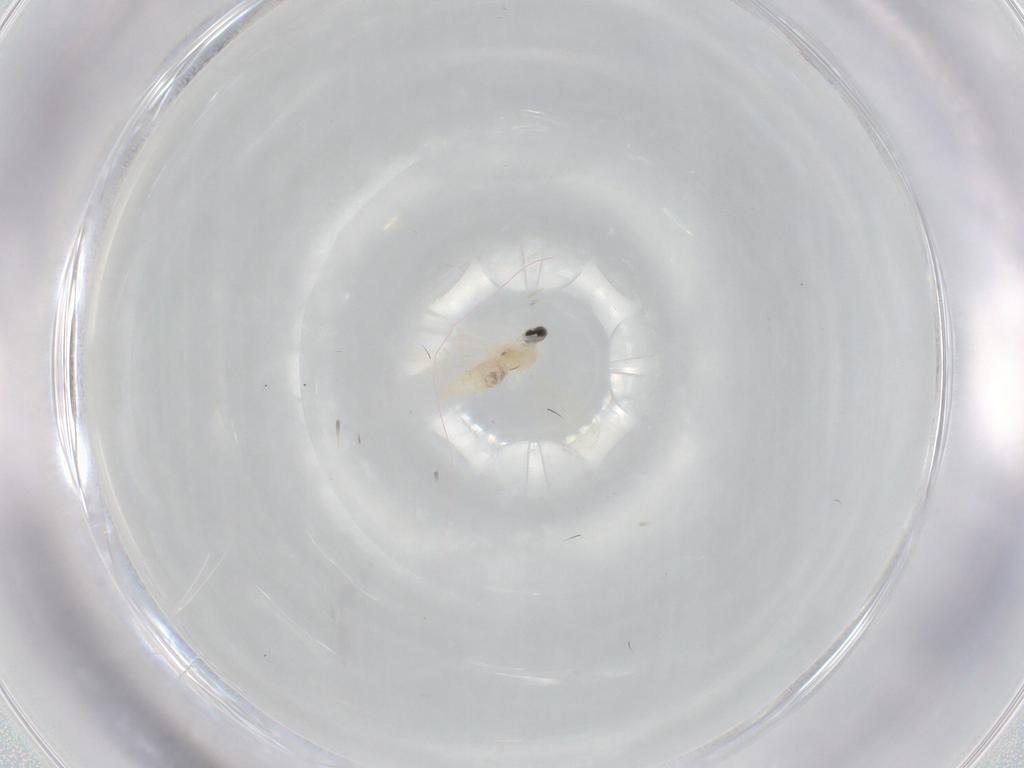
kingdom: Animalia
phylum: Arthropoda
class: Insecta
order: Diptera
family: Cecidomyiidae
